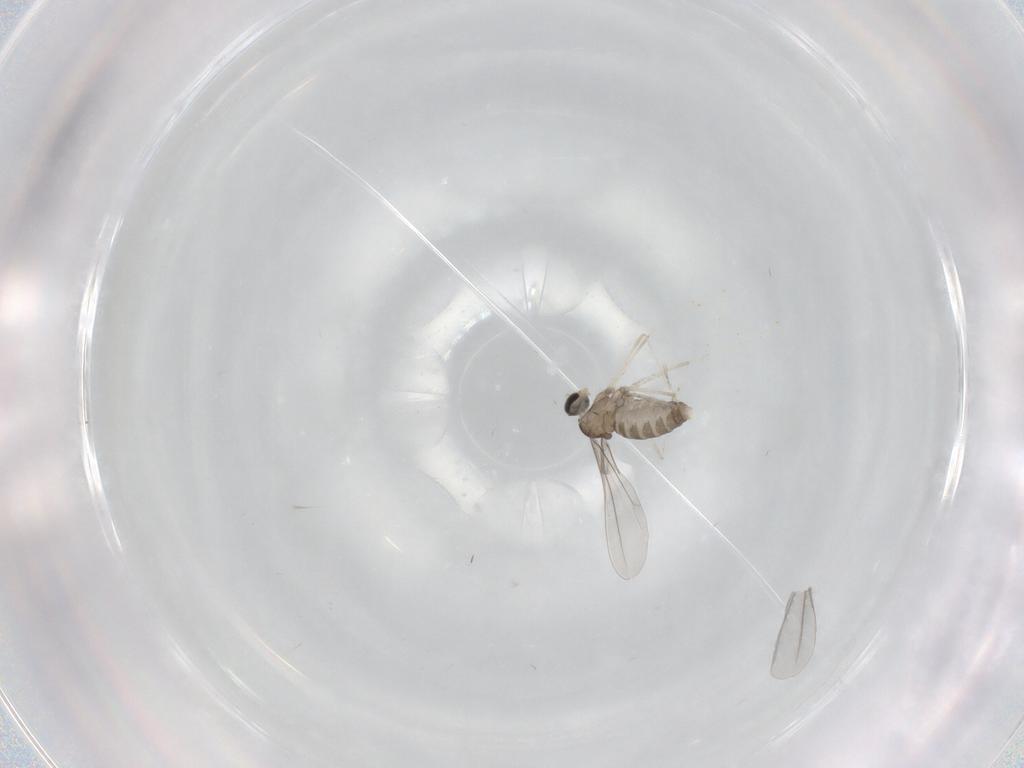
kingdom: Animalia
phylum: Arthropoda
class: Insecta
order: Diptera
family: Cecidomyiidae
